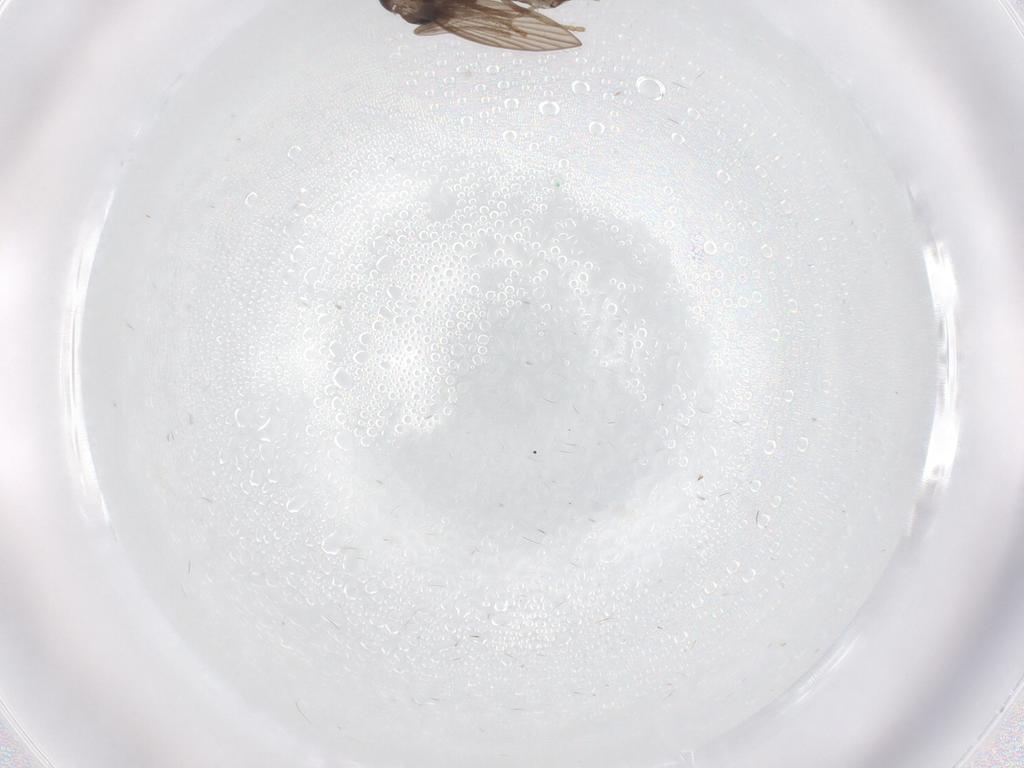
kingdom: Animalia
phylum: Arthropoda
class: Insecta
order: Diptera
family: Psychodidae
